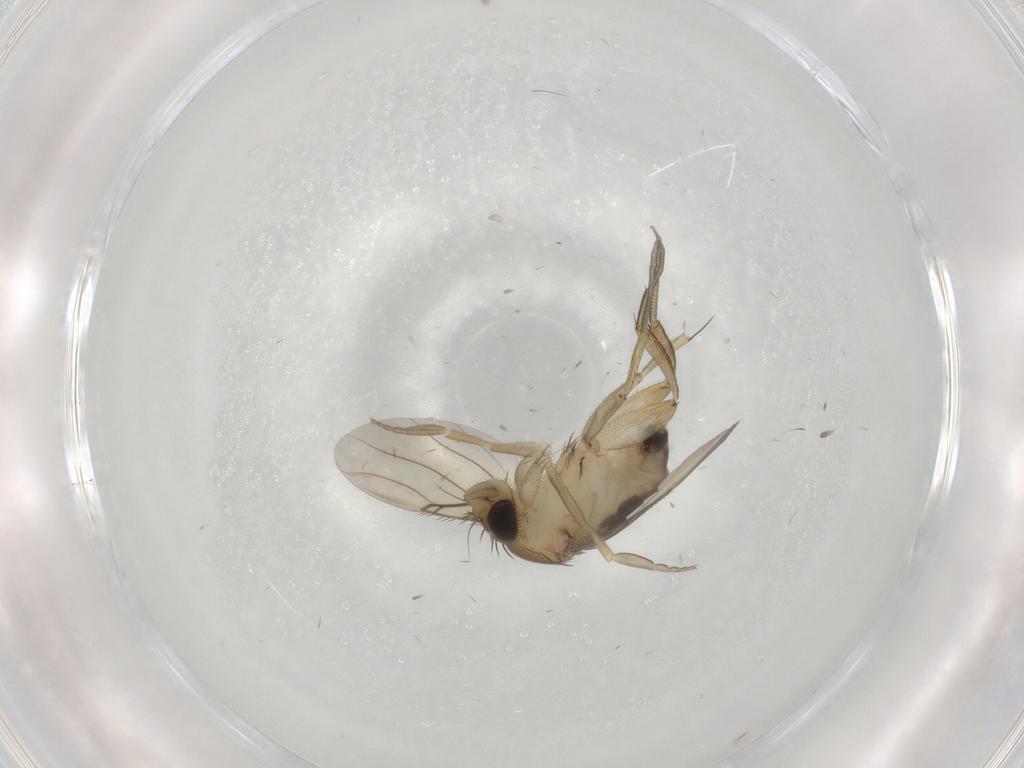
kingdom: Animalia
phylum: Arthropoda
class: Insecta
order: Diptera
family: Phoridae
